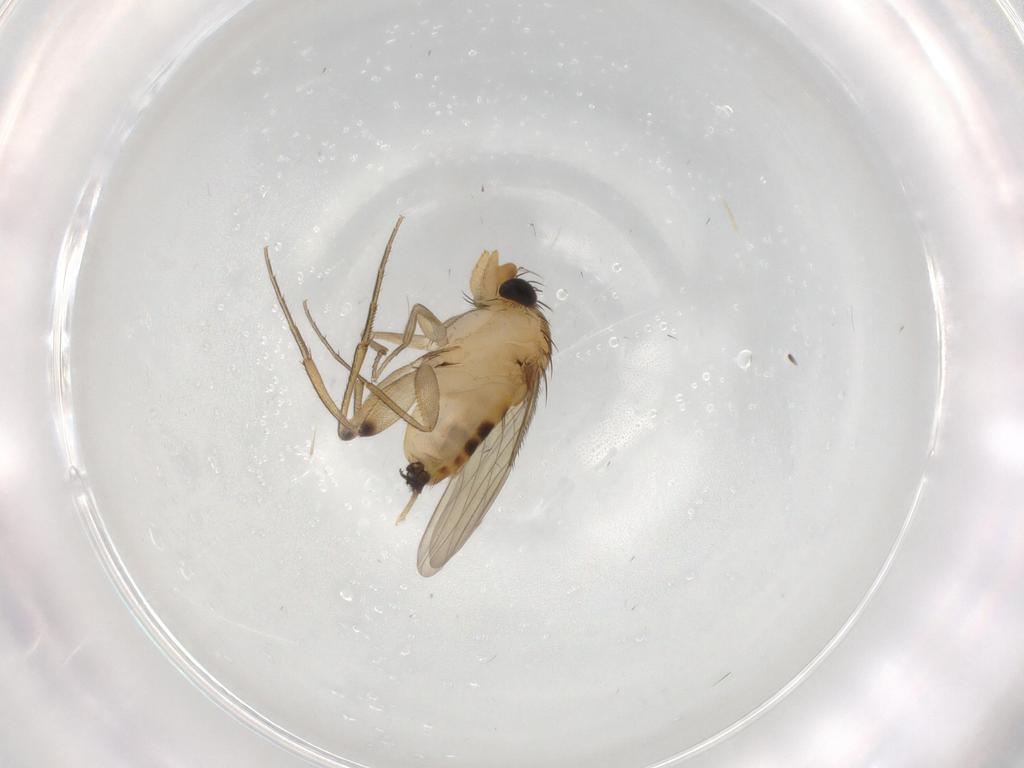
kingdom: Animalia
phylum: Arthropoda
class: Insecta
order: Diptera
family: Phoridae
